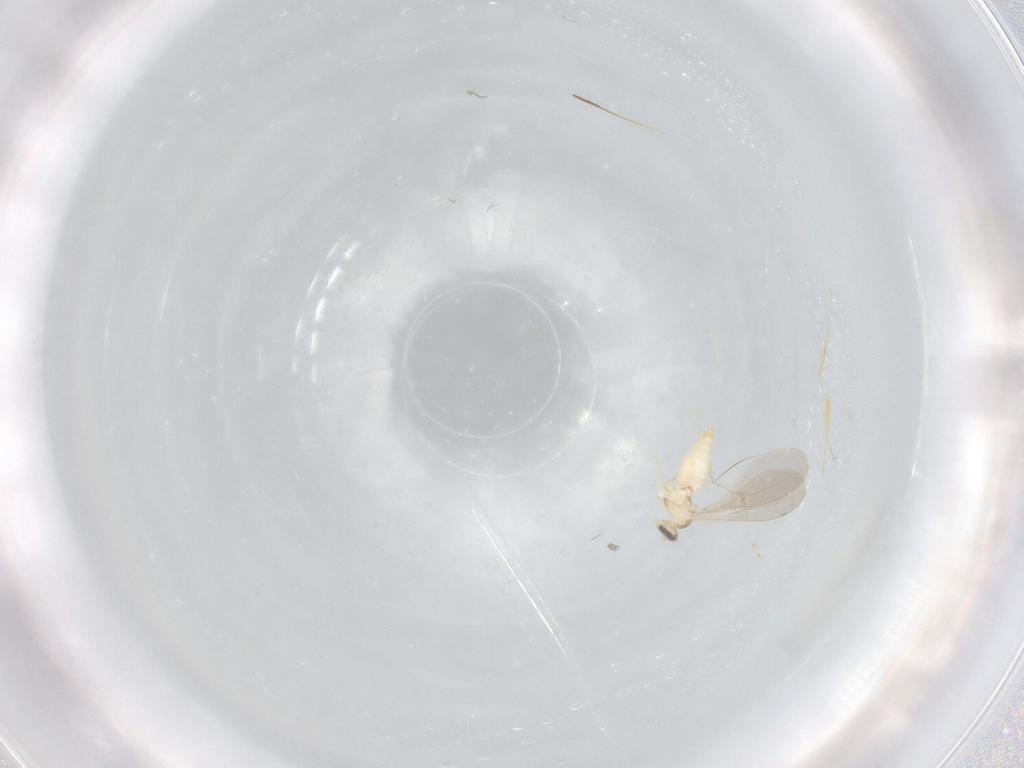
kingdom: Animalia
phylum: Arthropoda
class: Insecta
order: Diptera
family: Cecidomyiidae
